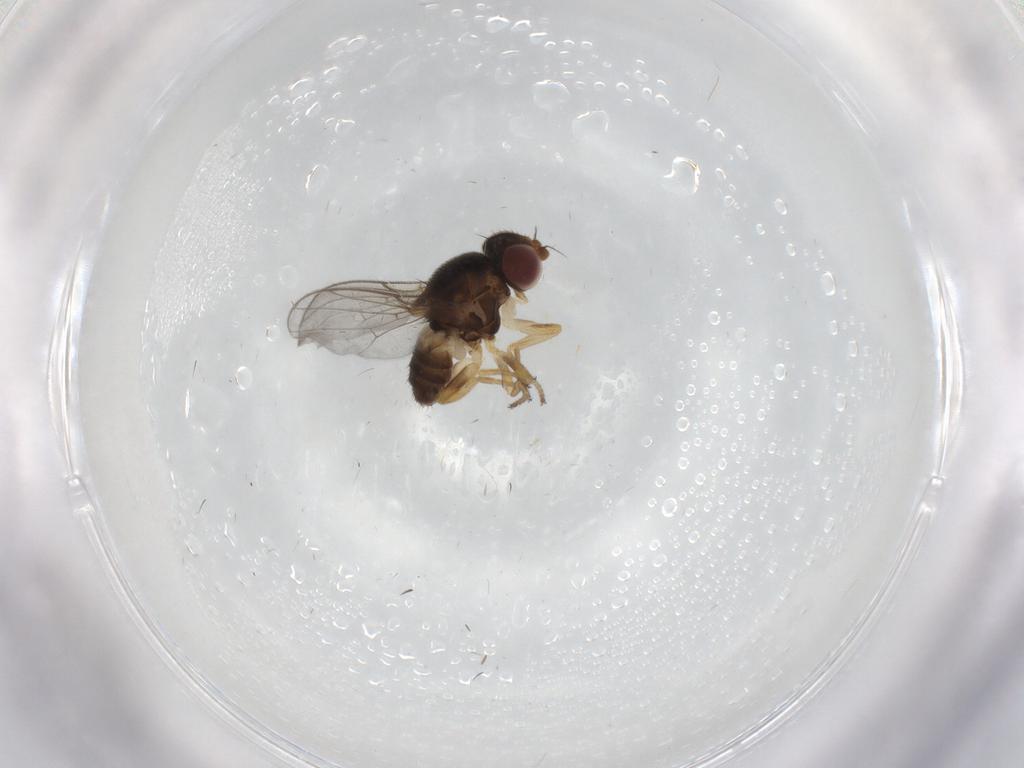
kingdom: Animalia
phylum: Arthropoda
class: Insecta
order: Diptera
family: Chloropidae
